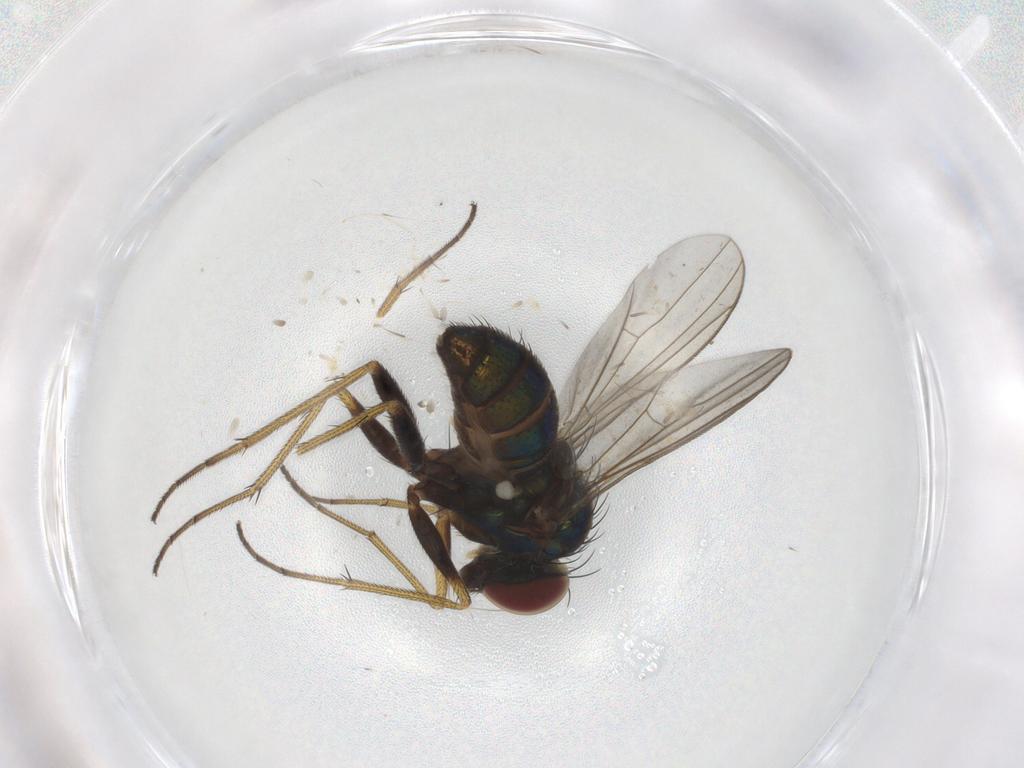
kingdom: Animalia
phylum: Arthropoda
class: Insecta
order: Diptera
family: Dolichopodidae
